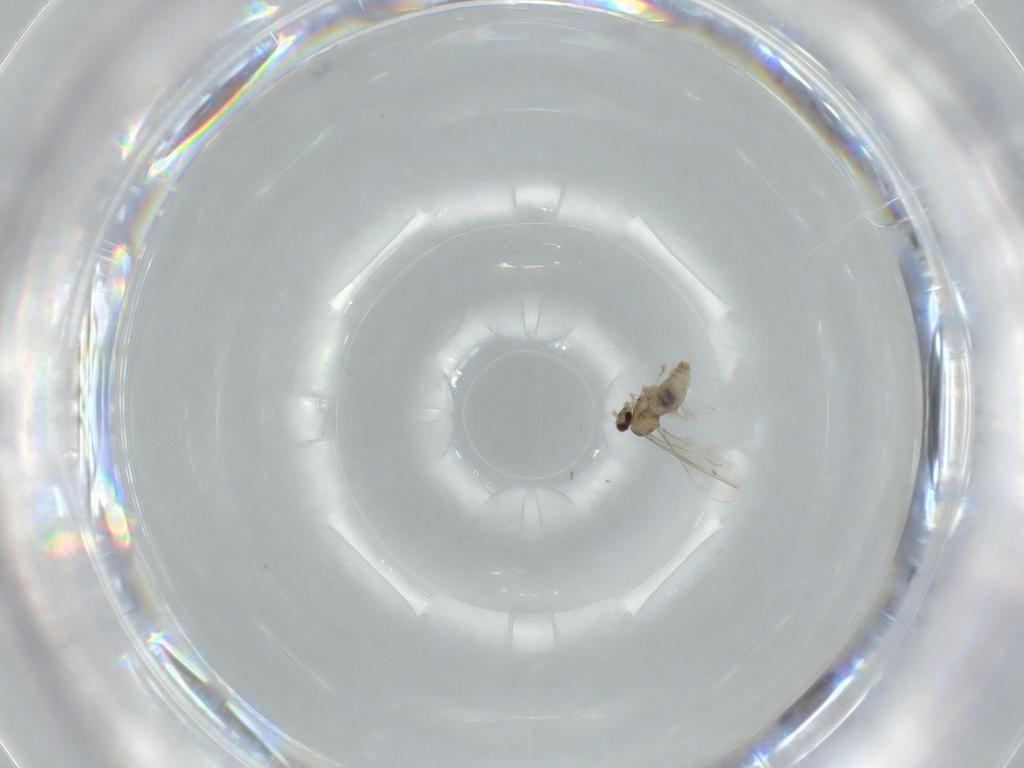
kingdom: Animalia
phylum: Arthropoda
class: Insecta
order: Diptera
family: Cecidomyiidae
